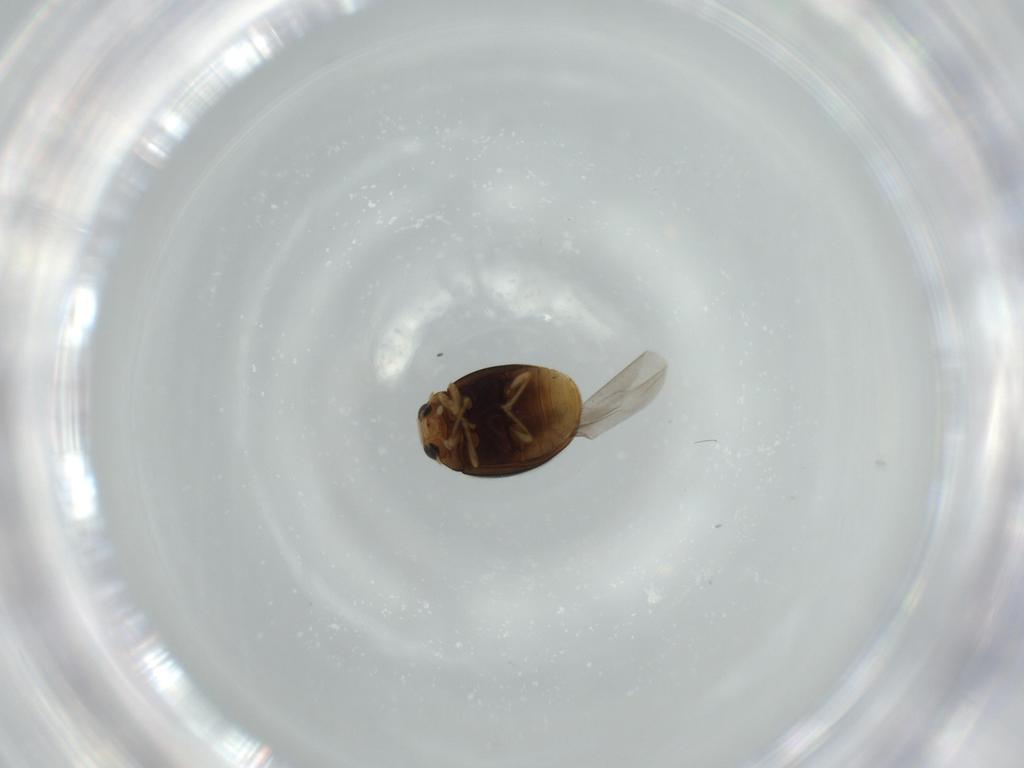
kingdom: Animalia
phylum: Arthropoda
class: Insecta
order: Coleoptera
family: Coccinellidae
